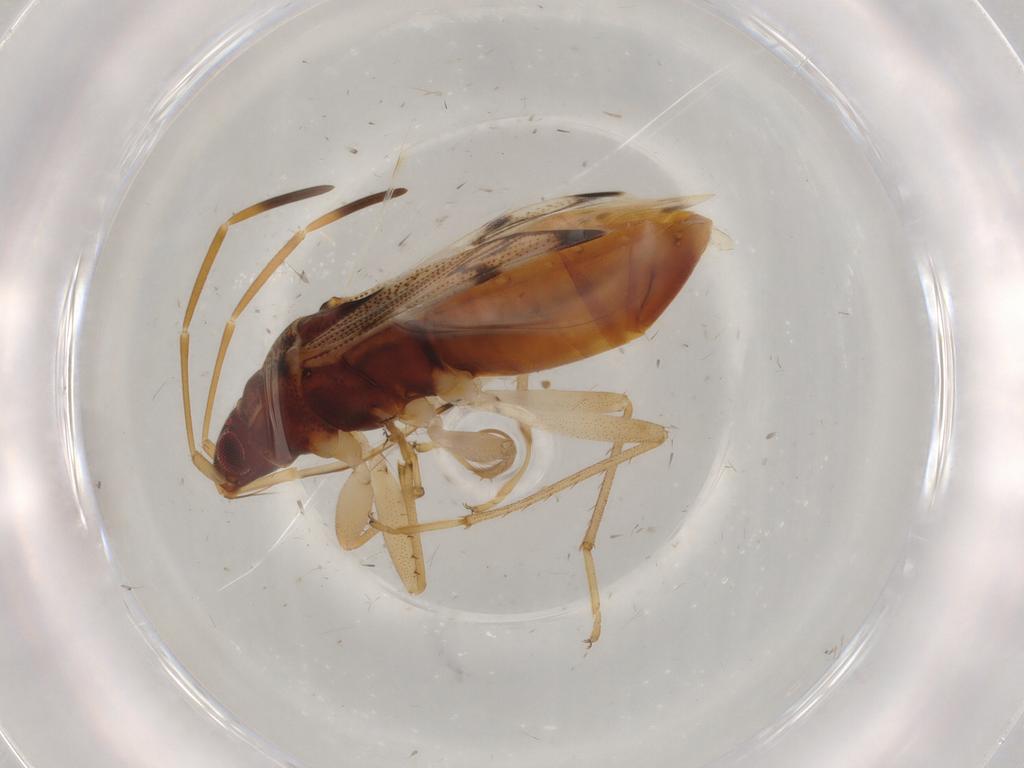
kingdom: Animalia
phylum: Arthropoda
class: Insecta
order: Hemiptera
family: Rhyparochromidae
